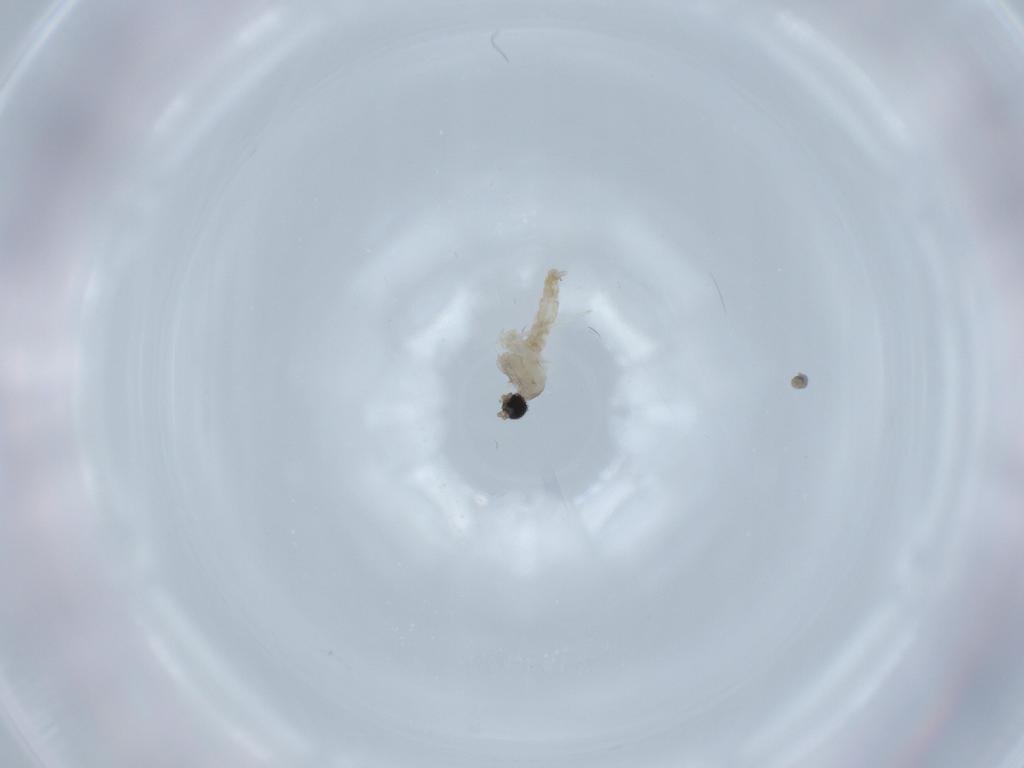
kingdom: Animalia
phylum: Arthropoda
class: Insecta
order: Diptera
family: Cecidomyiidae
